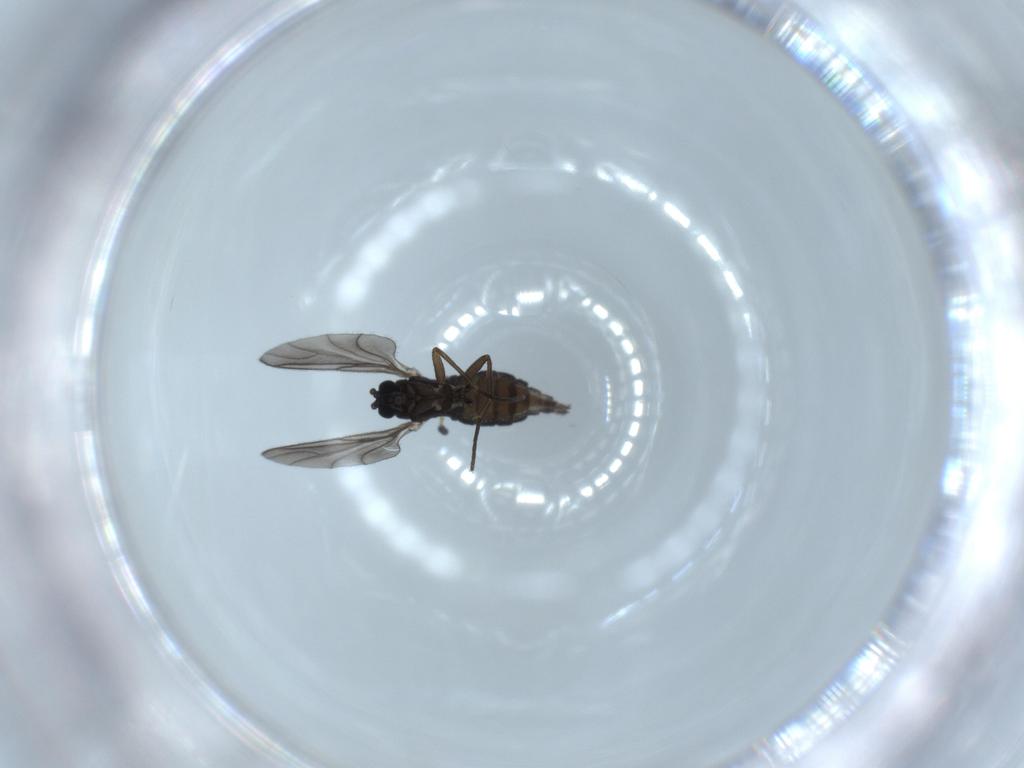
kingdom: Animalia
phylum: Arthropoda
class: Insecta
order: Diptera
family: Sciaridae
